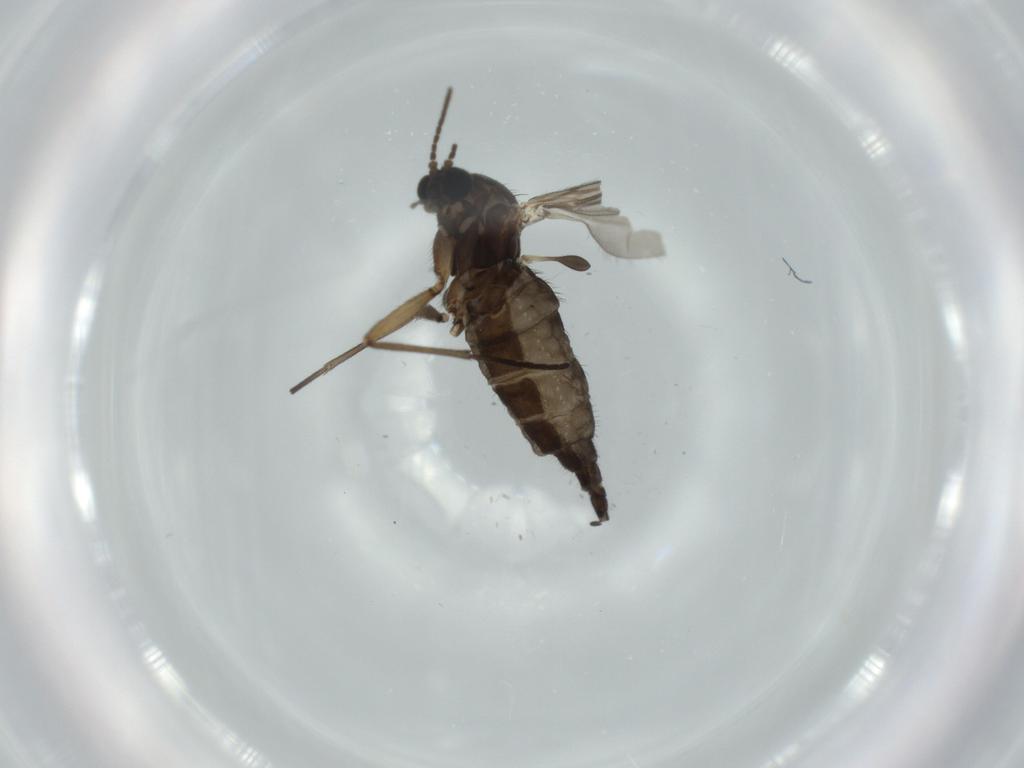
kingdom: Animalia
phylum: Arthropoda
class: Insecta
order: Diptera
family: Sciaridae
